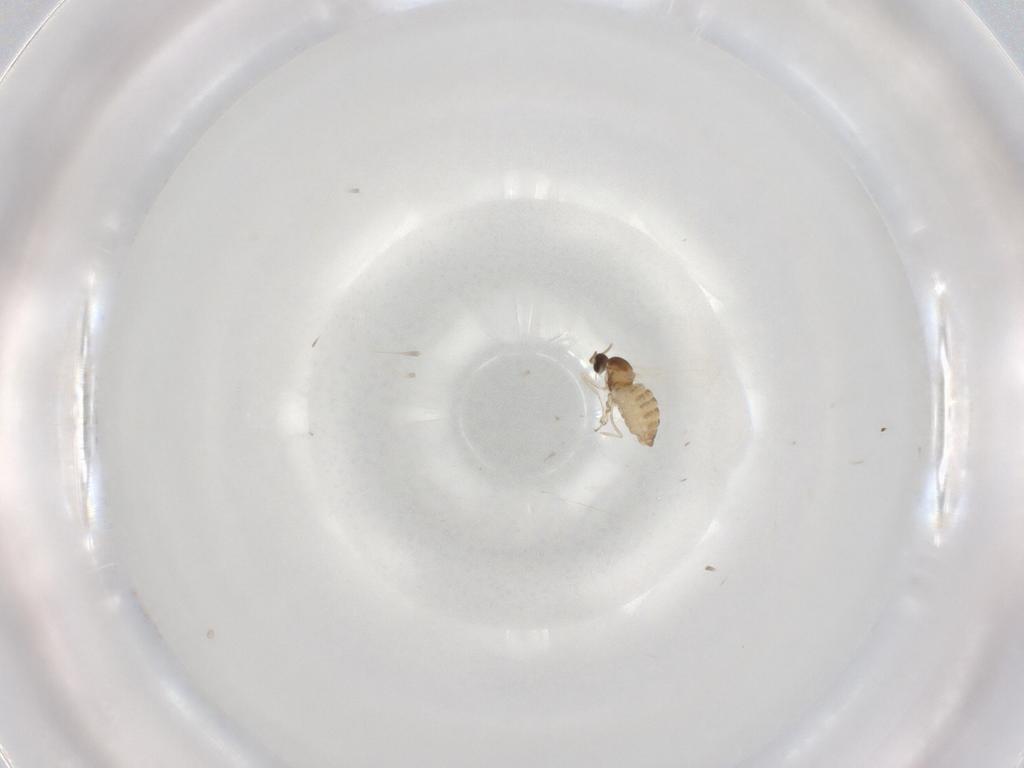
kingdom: Animalia
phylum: Arthropoda
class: Insecta
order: Diptera
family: Cecidomyiidae
